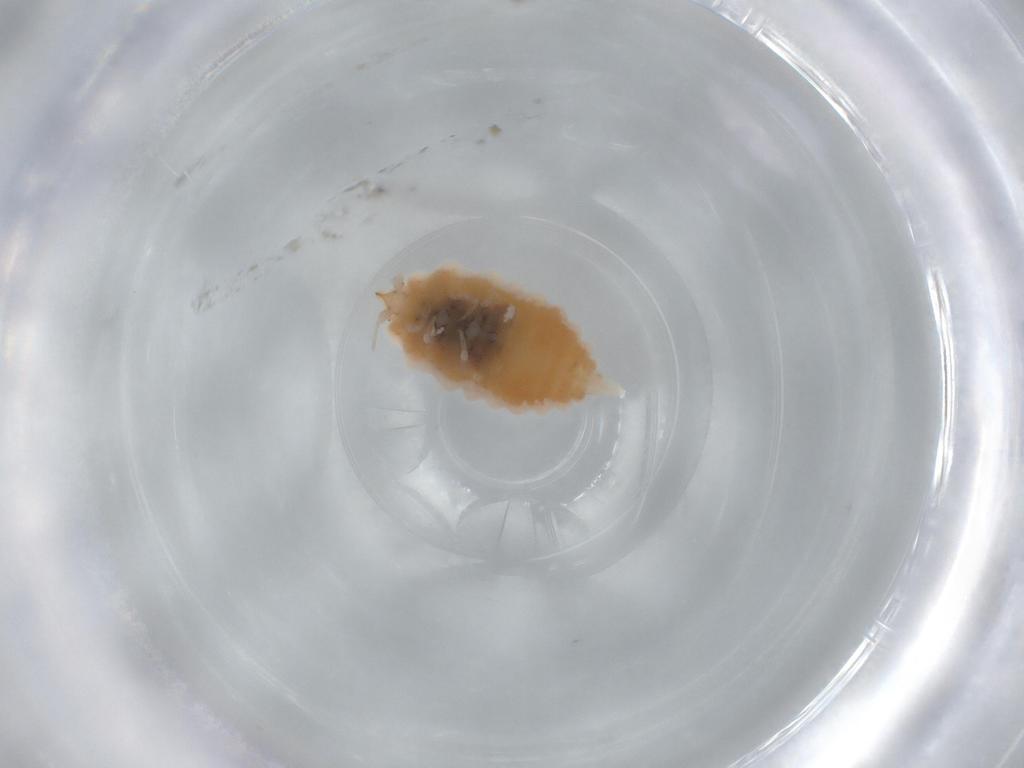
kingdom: Animalia
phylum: Arthropoda
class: Insecta
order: Neuroptera
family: Coniopterygidae
